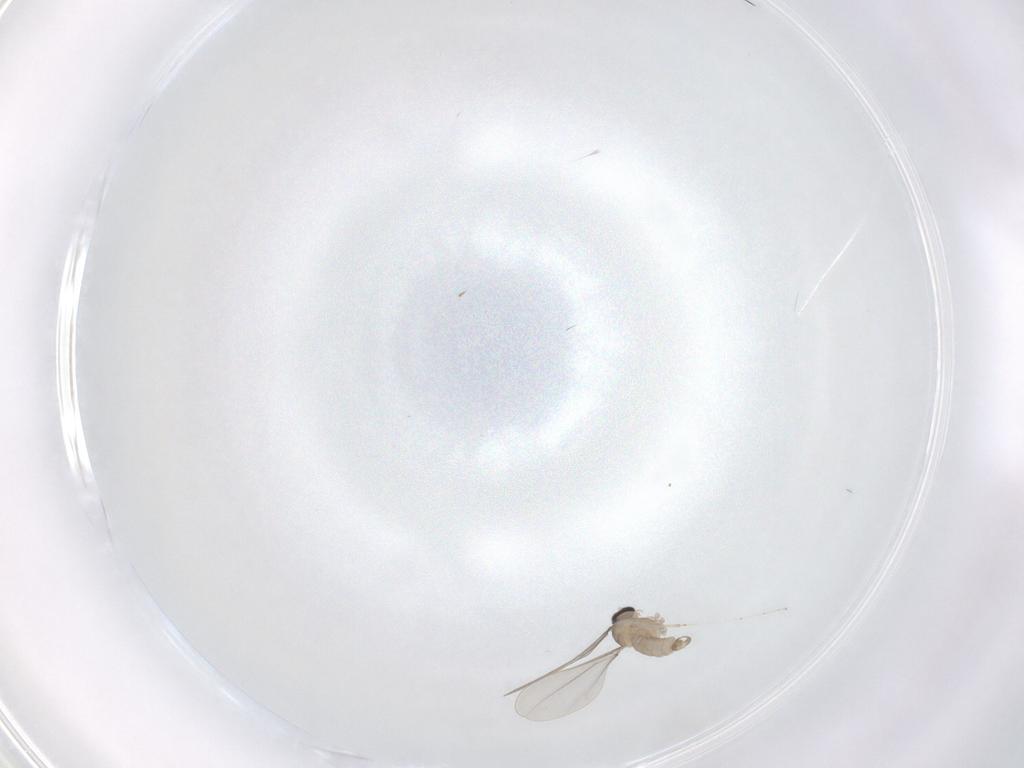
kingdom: Animalia
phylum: Arthropoda
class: Insecta
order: Diptera
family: Cecidomyiidae
